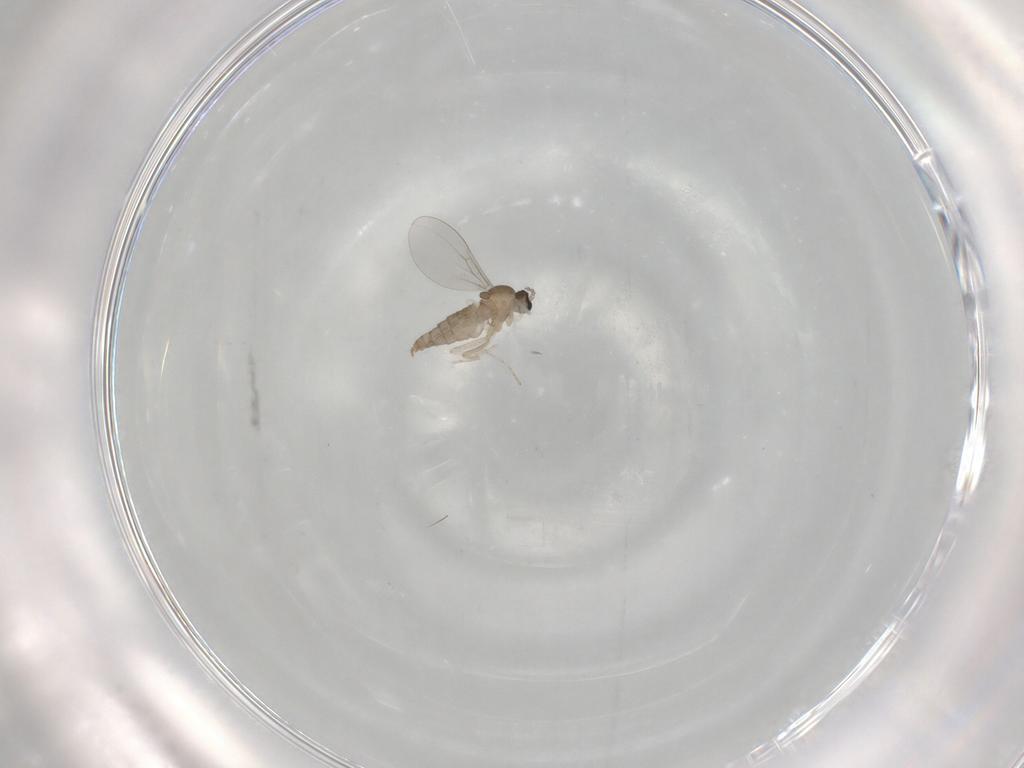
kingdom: Animalia
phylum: Arthropoda
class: Insecta
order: Diptera
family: Cecidomyiidae
